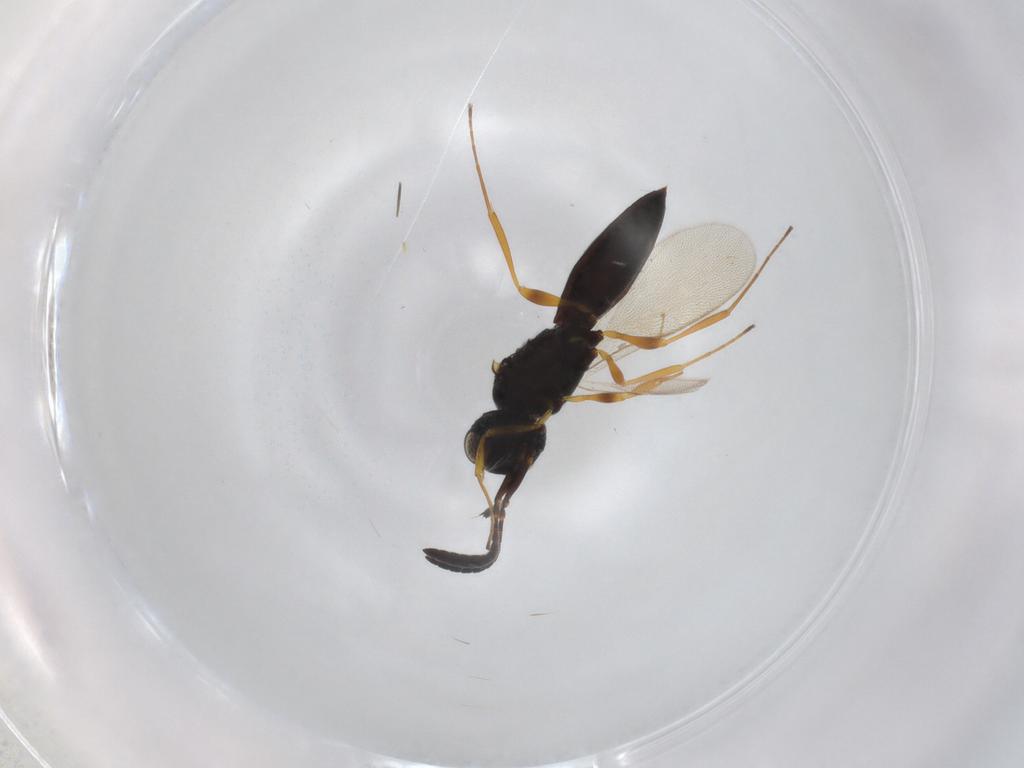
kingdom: Animalia
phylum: Arthropoda
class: Insecta
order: Hymenoptera
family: Scelionidae
